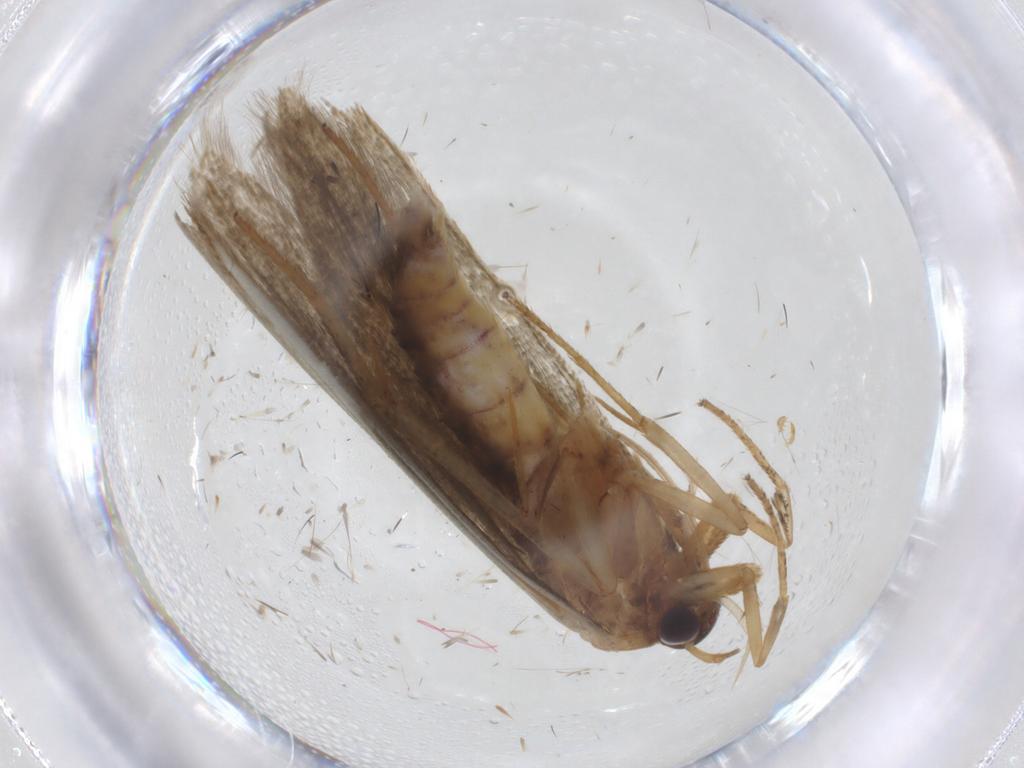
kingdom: Animalia
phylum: Arthropoda
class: Insecta
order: Lepidoptera
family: Blastobasidae
